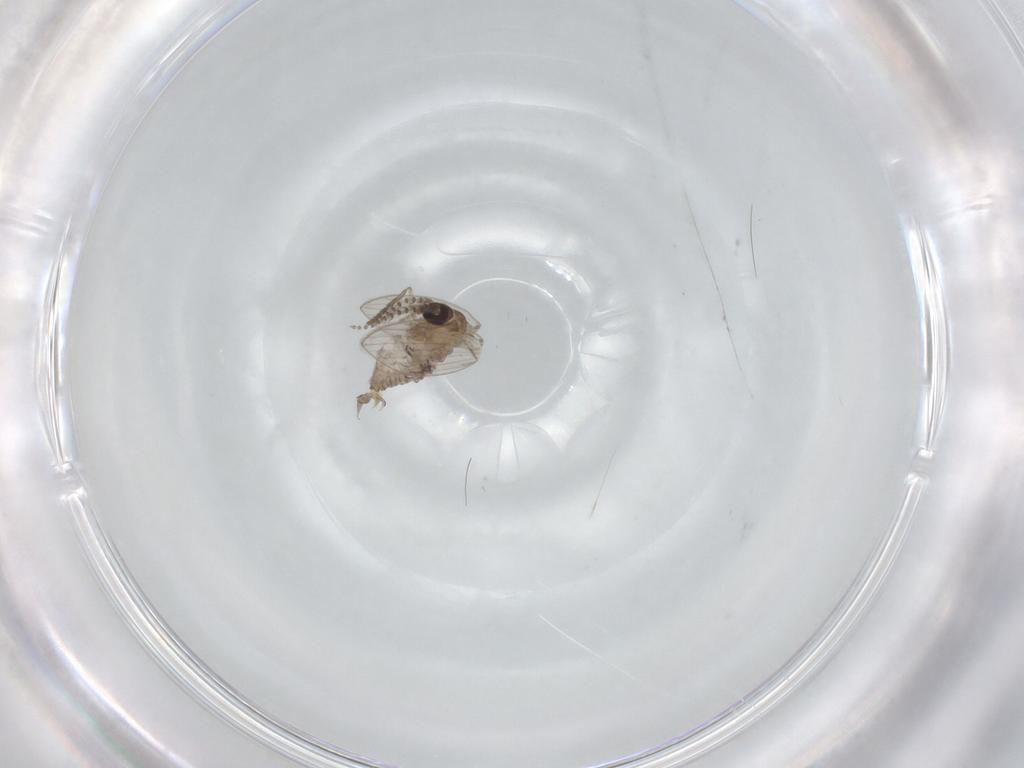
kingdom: Animalia
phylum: Arthropoda
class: Insecta
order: Diptera
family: Psychodidae
